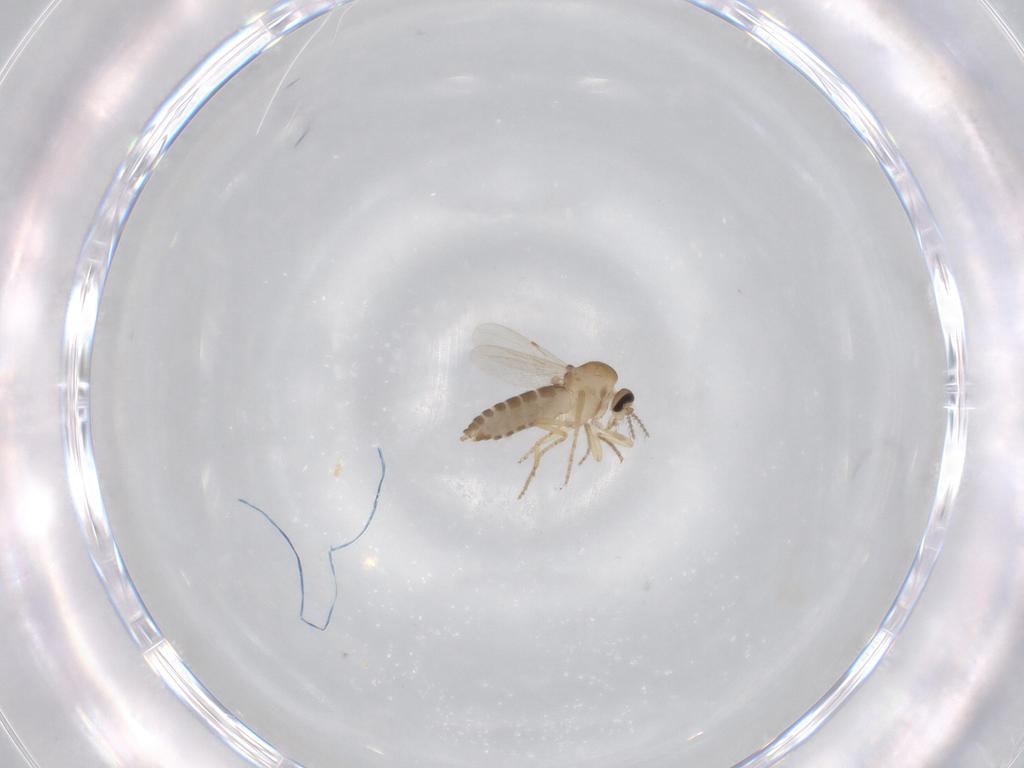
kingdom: Animalia
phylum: Arthropoda
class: Insecta
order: Diptera
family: Ceratopogonidae
